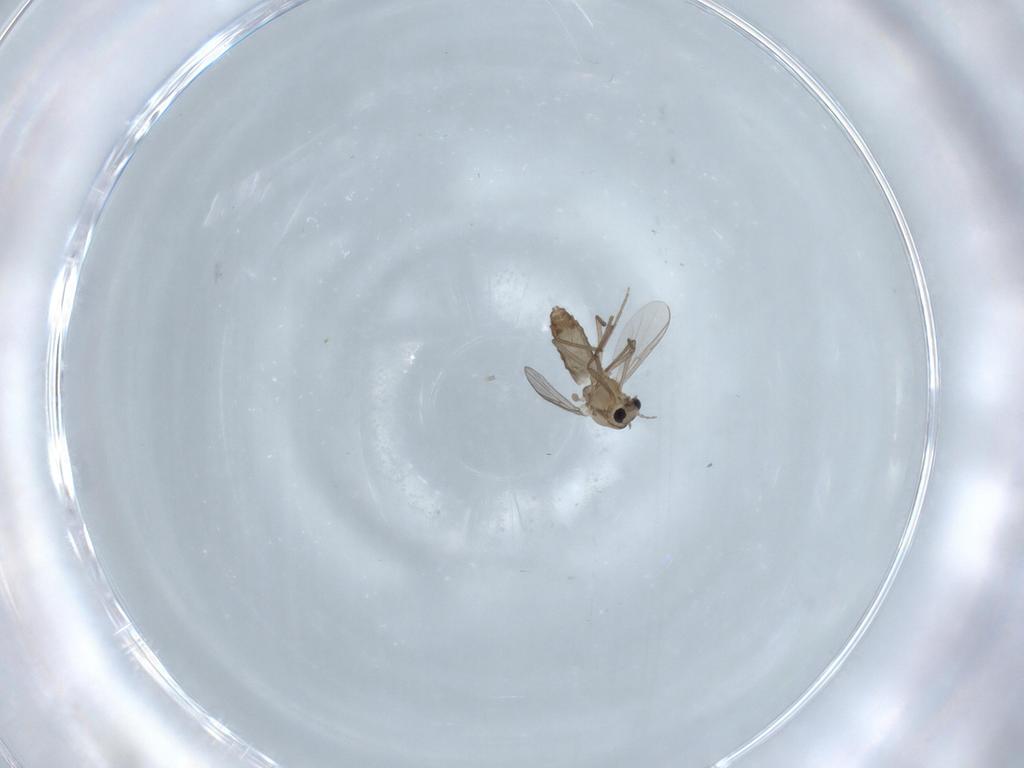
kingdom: Animalia
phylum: Arthropoda
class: Insecta
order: Diptera
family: Chironomidae
